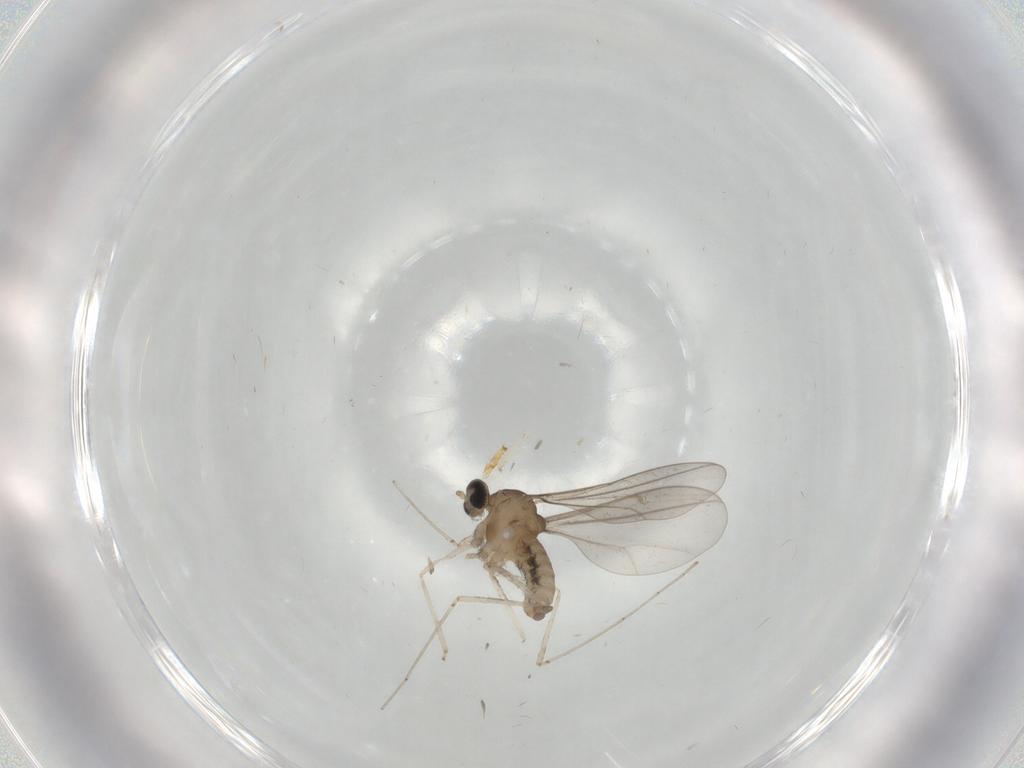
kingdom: Animalia
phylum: Arthropoda
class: Insecta
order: Diptera
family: Psychodidae
